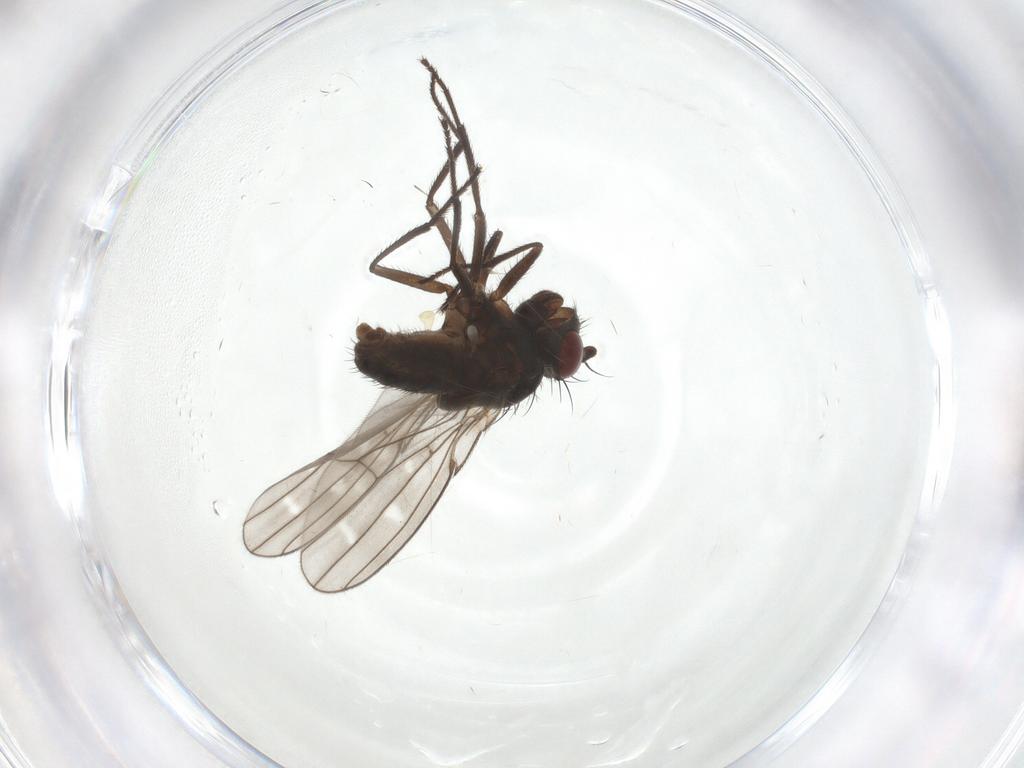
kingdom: Animalia
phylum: Arthropoda
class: Insecta
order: Diptera
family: Ephydridae
